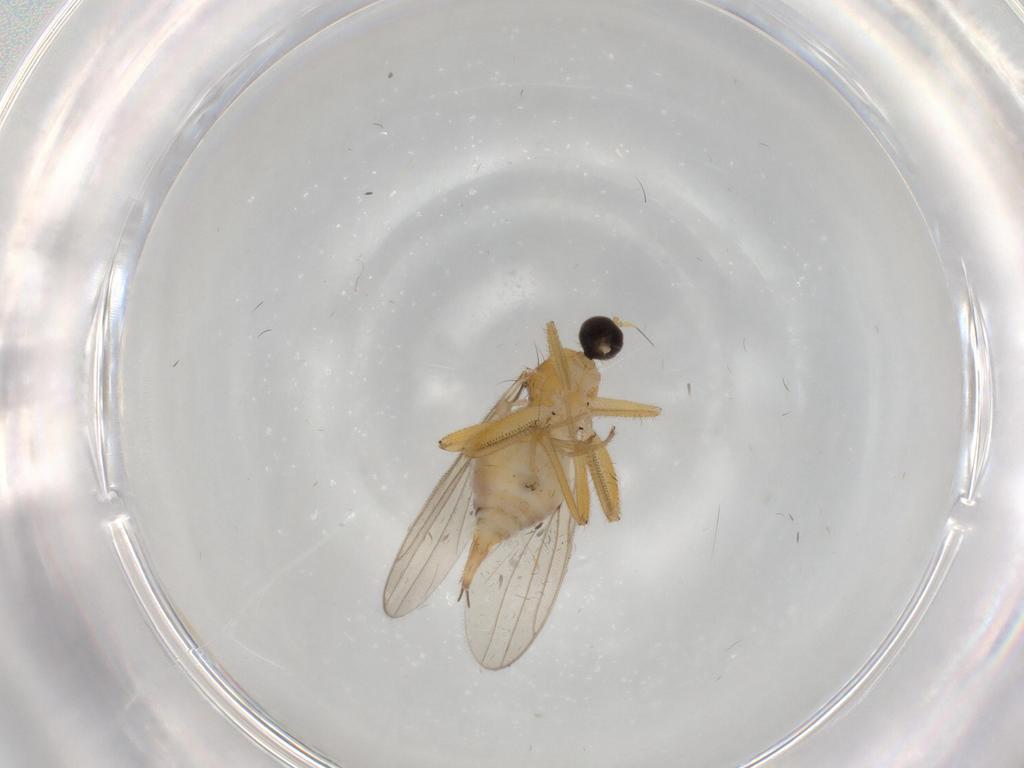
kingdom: Animalia
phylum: Arthropoda
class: Insecta
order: Diptera
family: Hybotidae
